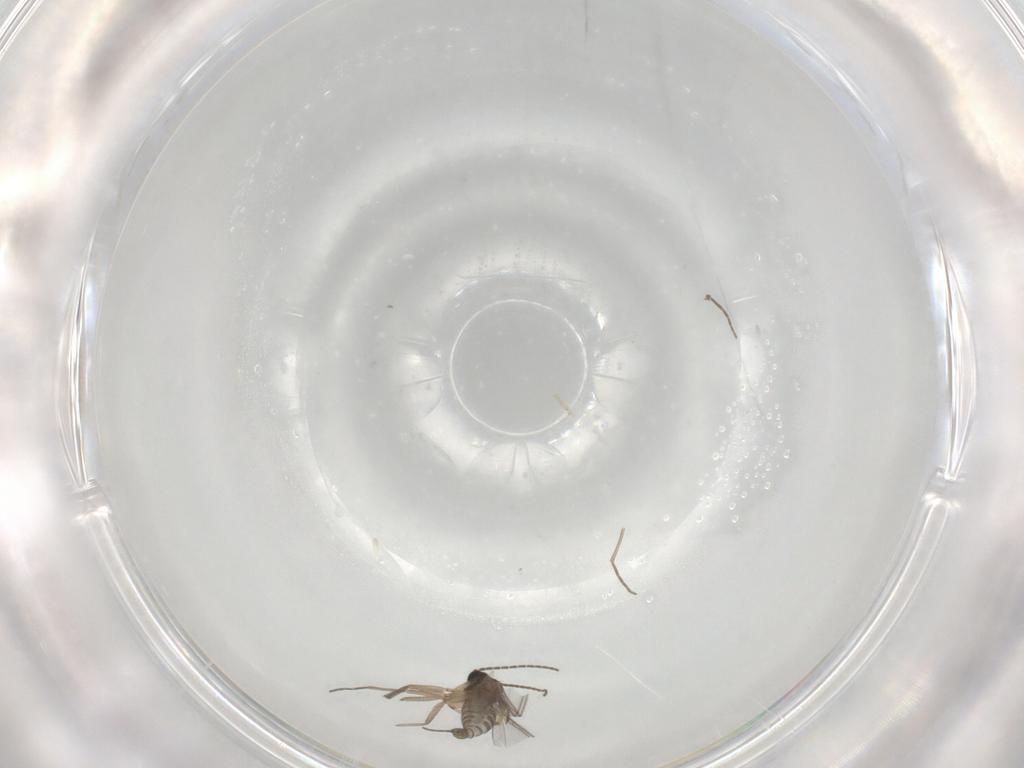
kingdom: Animalia
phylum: Arthropoda
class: Insecta
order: Diptera
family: Sciaridae
